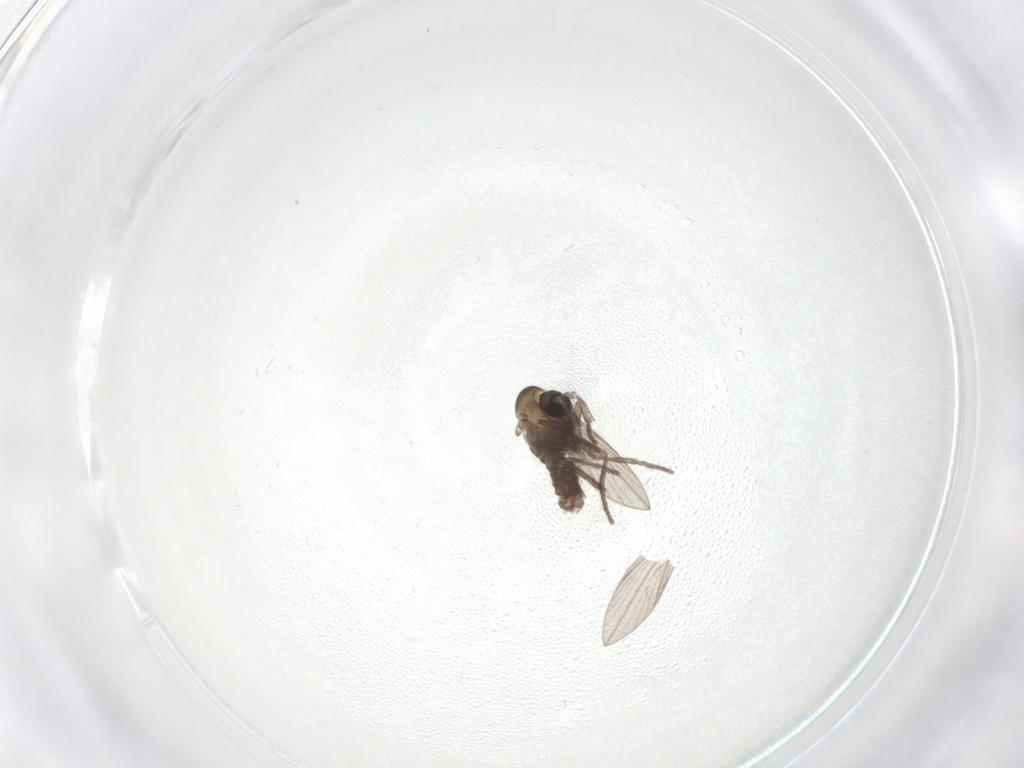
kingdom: Animalia
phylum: Arthropoda
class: Insecta
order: Diptera
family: Psychodidae
